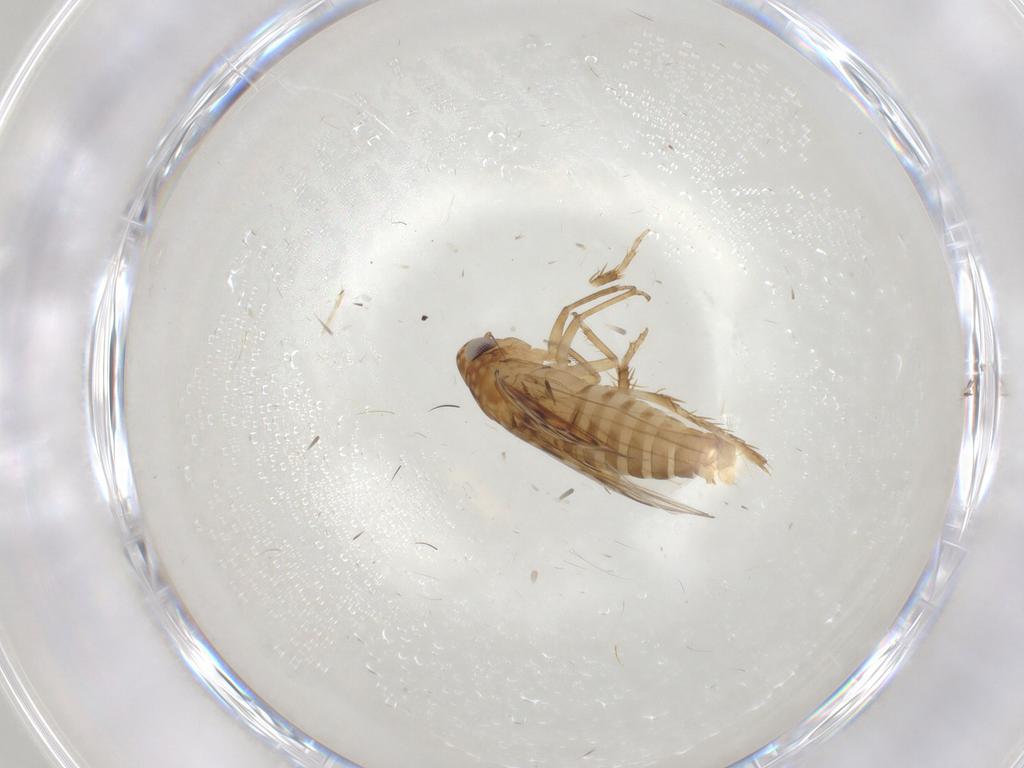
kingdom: Animalia
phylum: Arthropoda
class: Insecta
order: Hemiptera
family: Cicadellidae
